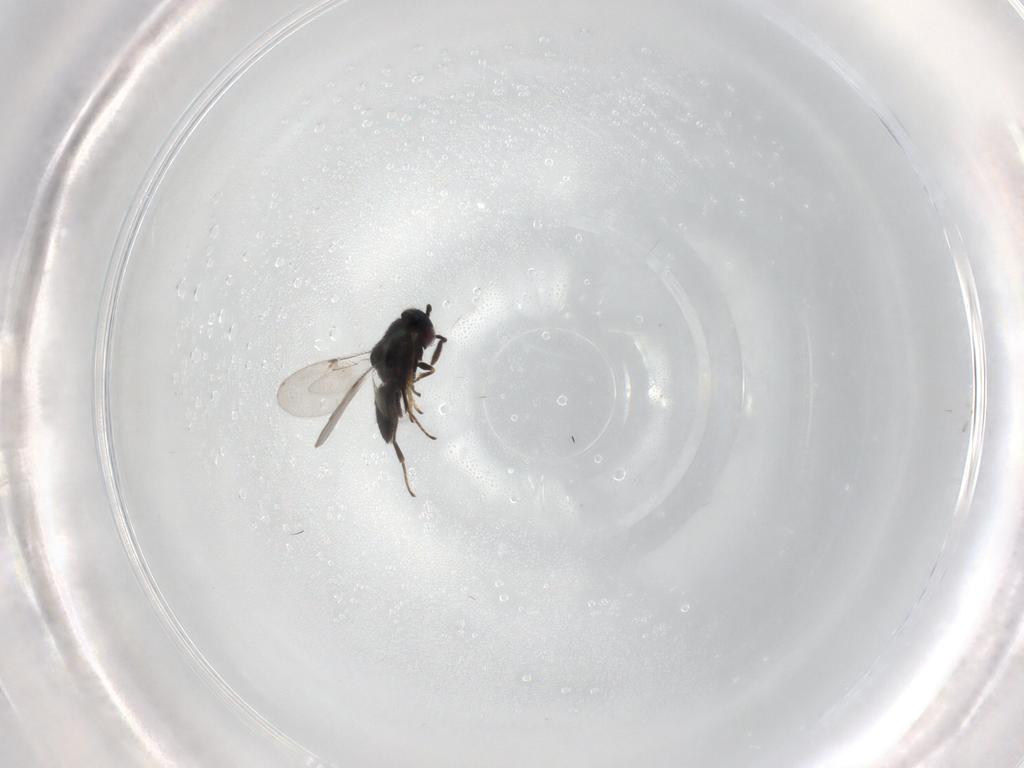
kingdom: Animalia
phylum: Arthropoda
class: Insecta
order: Hymenoptera
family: Encyrtidae
